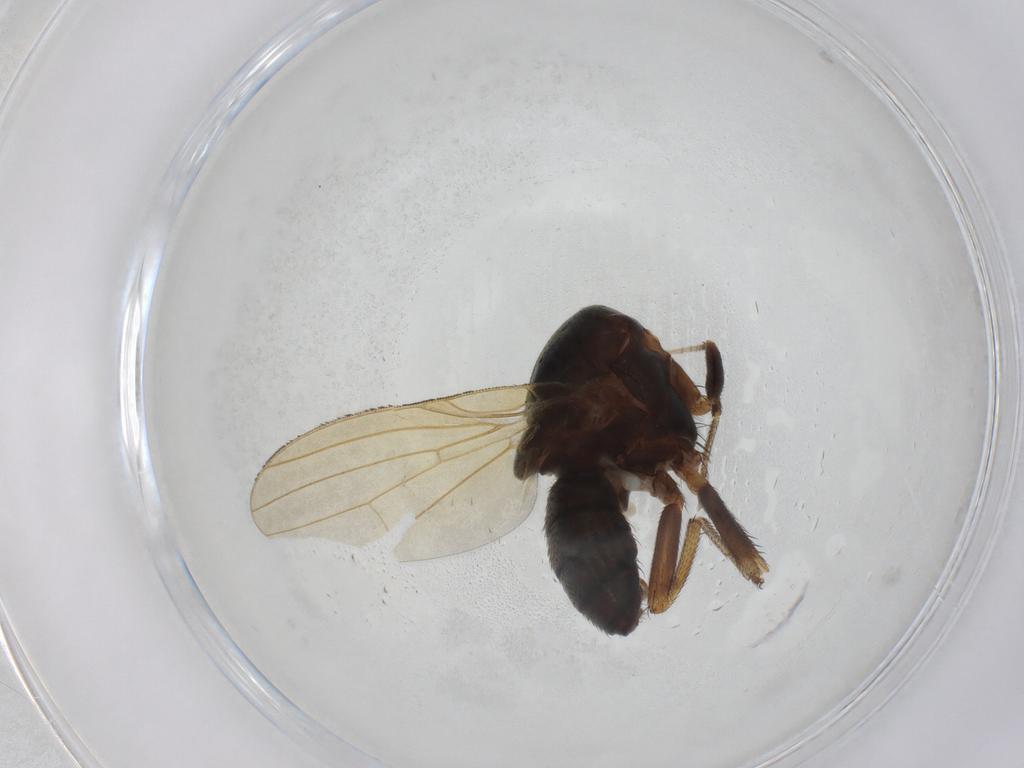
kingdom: Animalia
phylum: Arthropoda
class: Insecta
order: Diptera
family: Lauxaniidae
